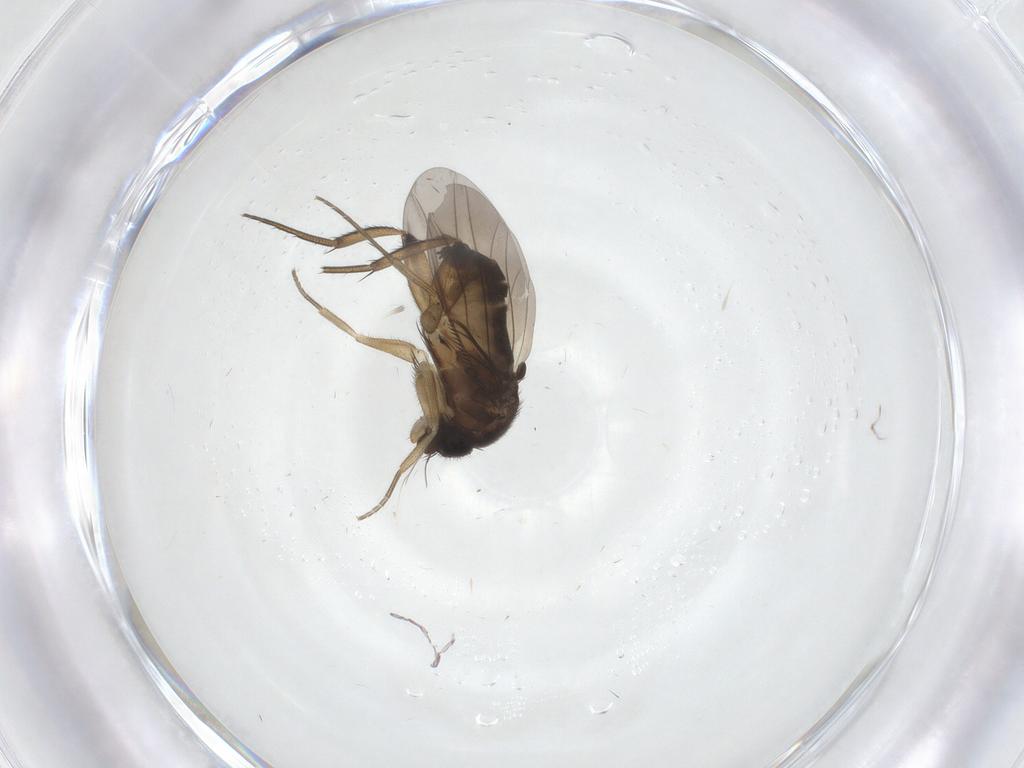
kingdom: Animalia
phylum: Arthropoda
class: Insecta
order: Diptera
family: Phoridae
